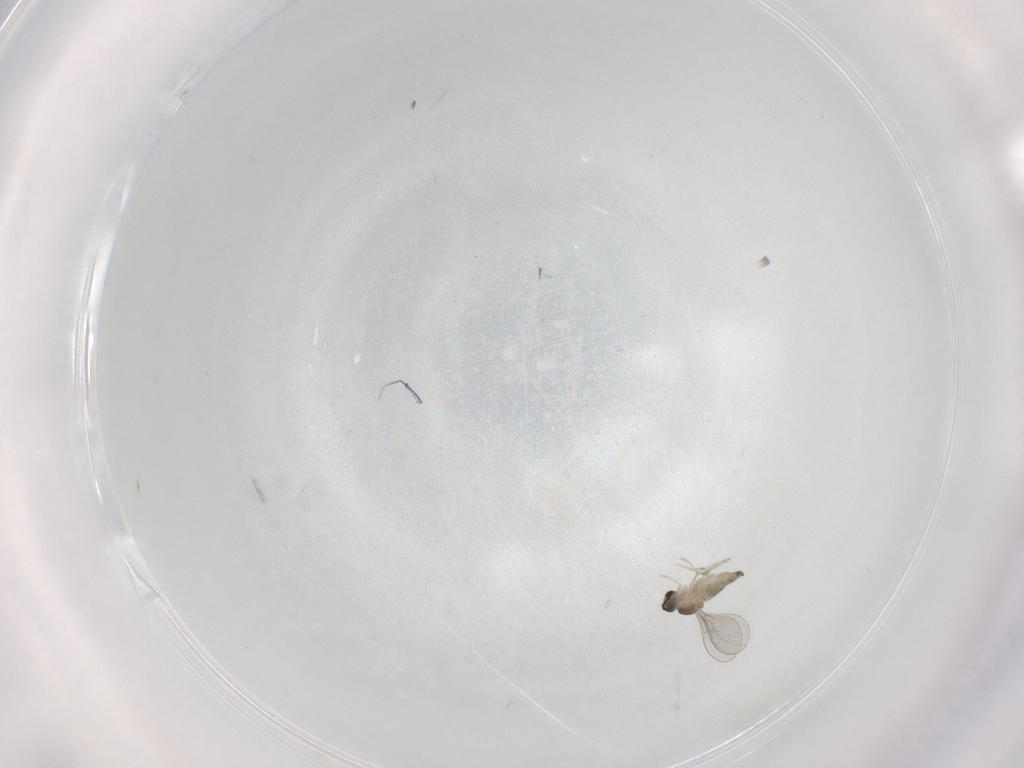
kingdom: Animalia
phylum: Arthropoda
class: Insecta
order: Diptera
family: Cecidomyiidae
